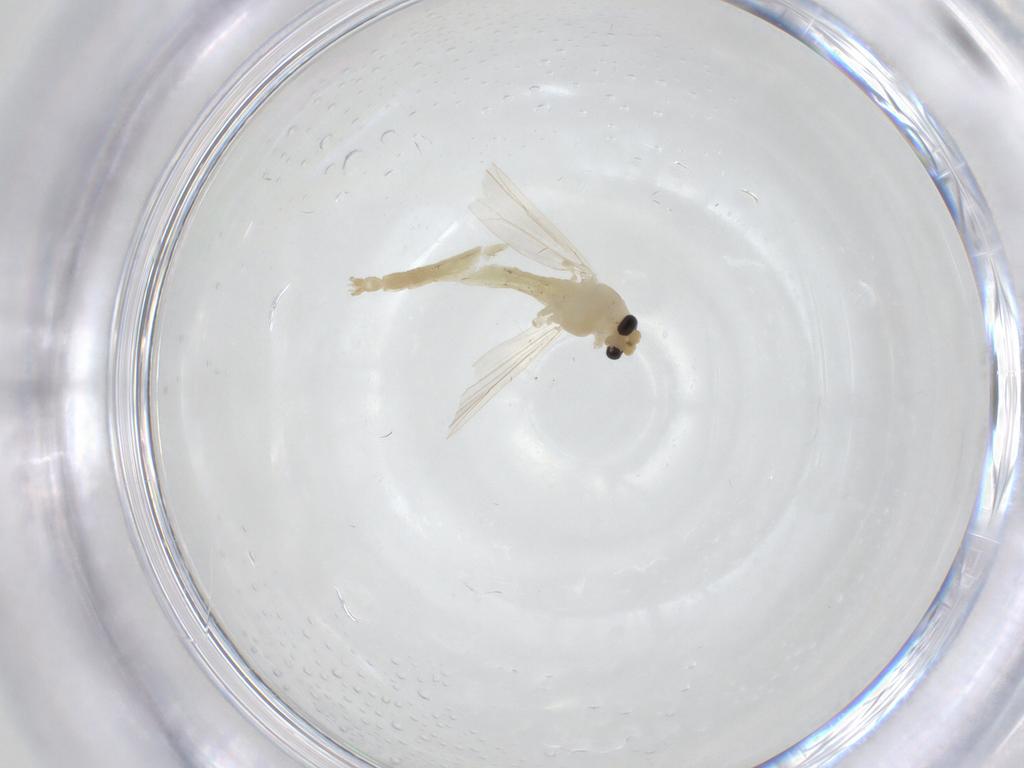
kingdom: Animalia
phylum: Arthropoda
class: Insecta
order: Diptera
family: Chironomidae
